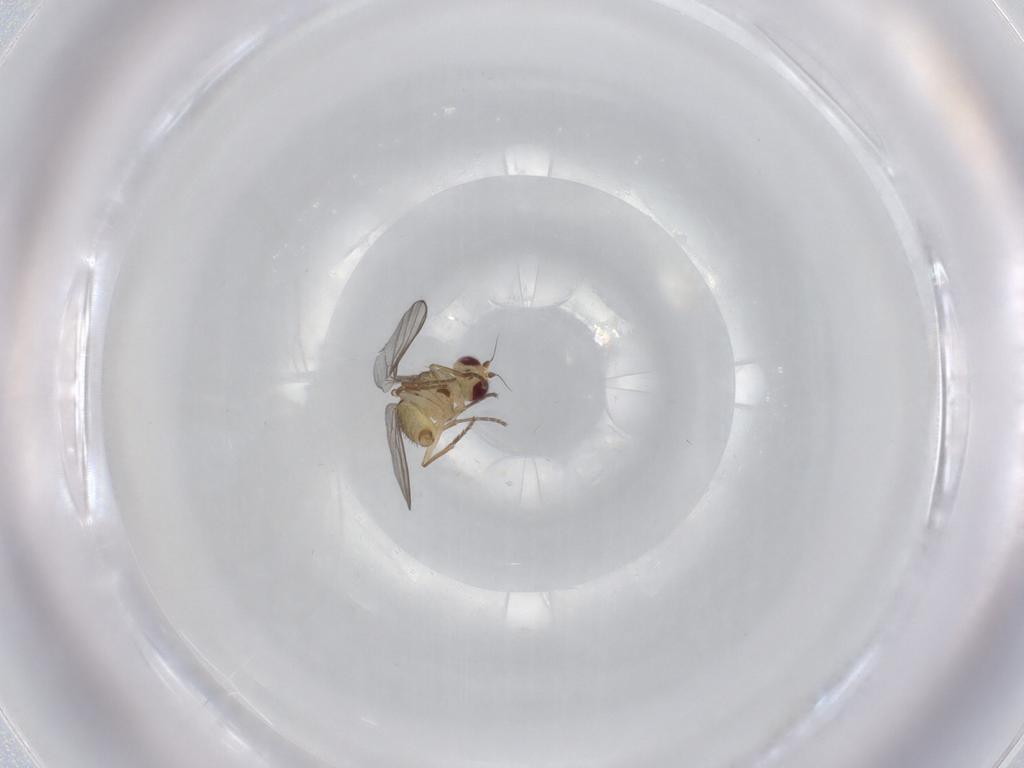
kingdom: Animalia
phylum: Arthropoda
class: Insecta
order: Diptera
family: Agromyzidae
